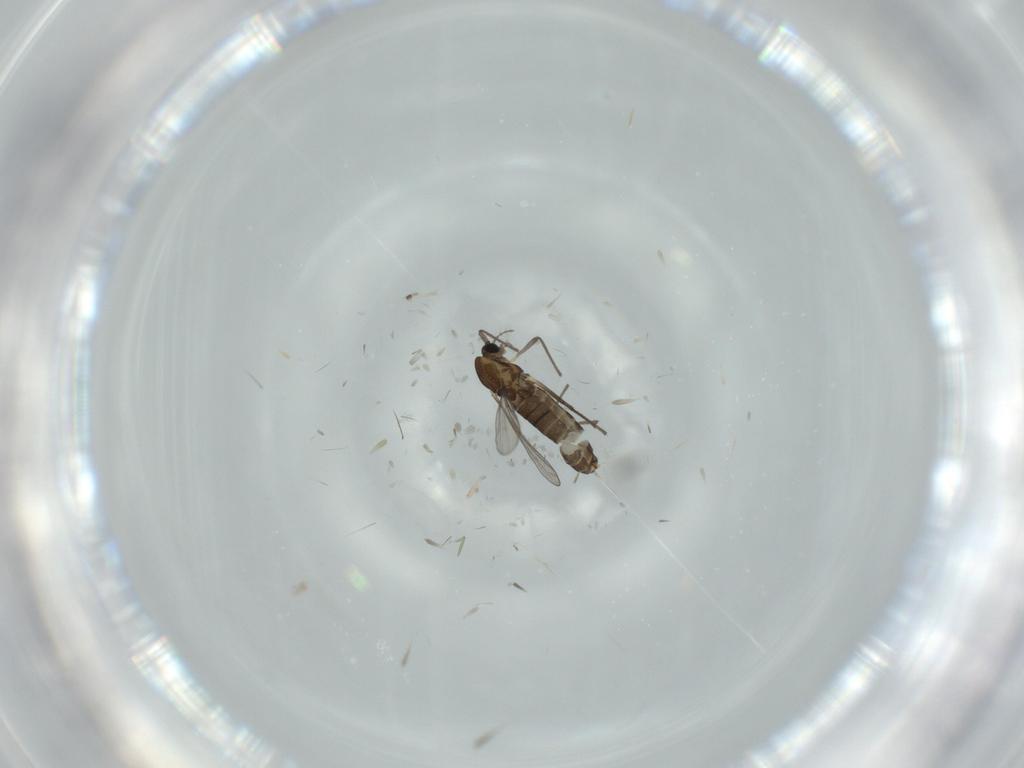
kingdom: Animalia
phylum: Arthropoda
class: Insecta
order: Diptera
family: Chironomidae
